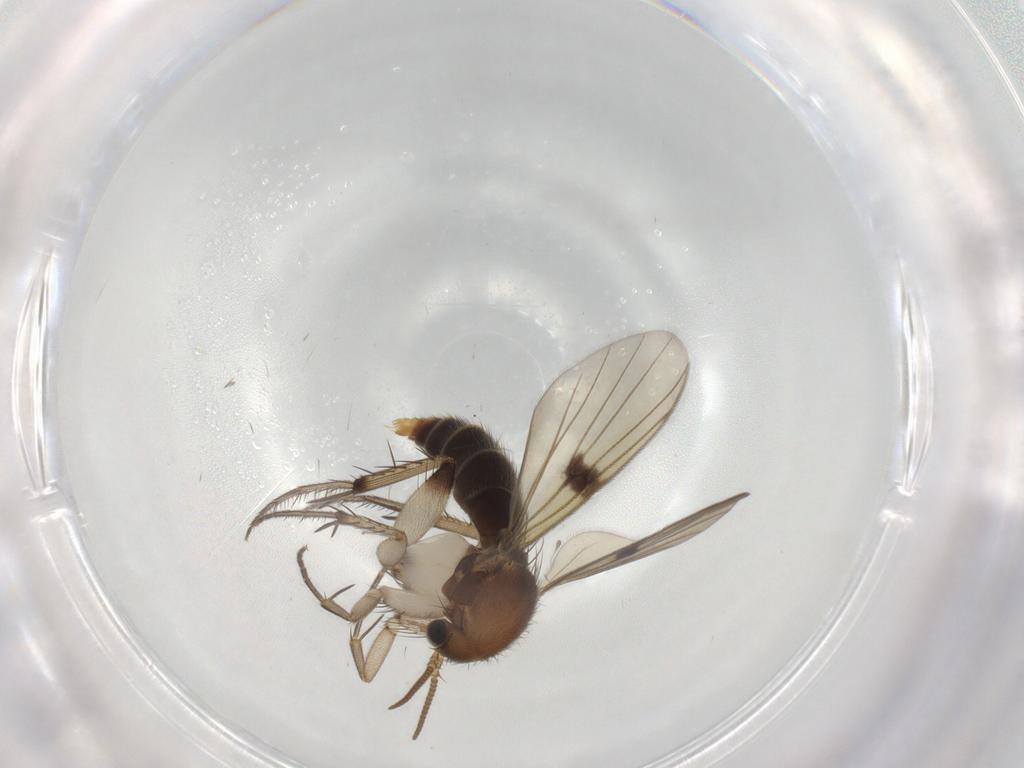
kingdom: Animalia
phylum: Arthropoda
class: Insecta
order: Diptera
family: Mycetophilidae
